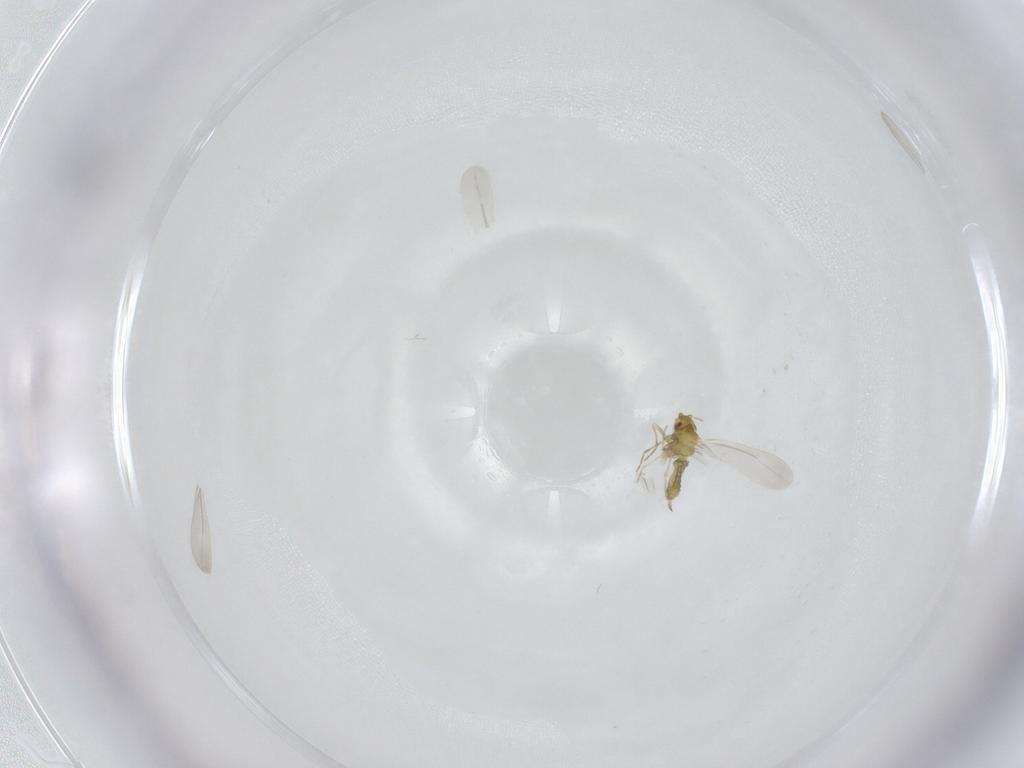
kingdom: Animalia
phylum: Arthropoda
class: Insecta
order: Hemiptera
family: Aleyrodidae
